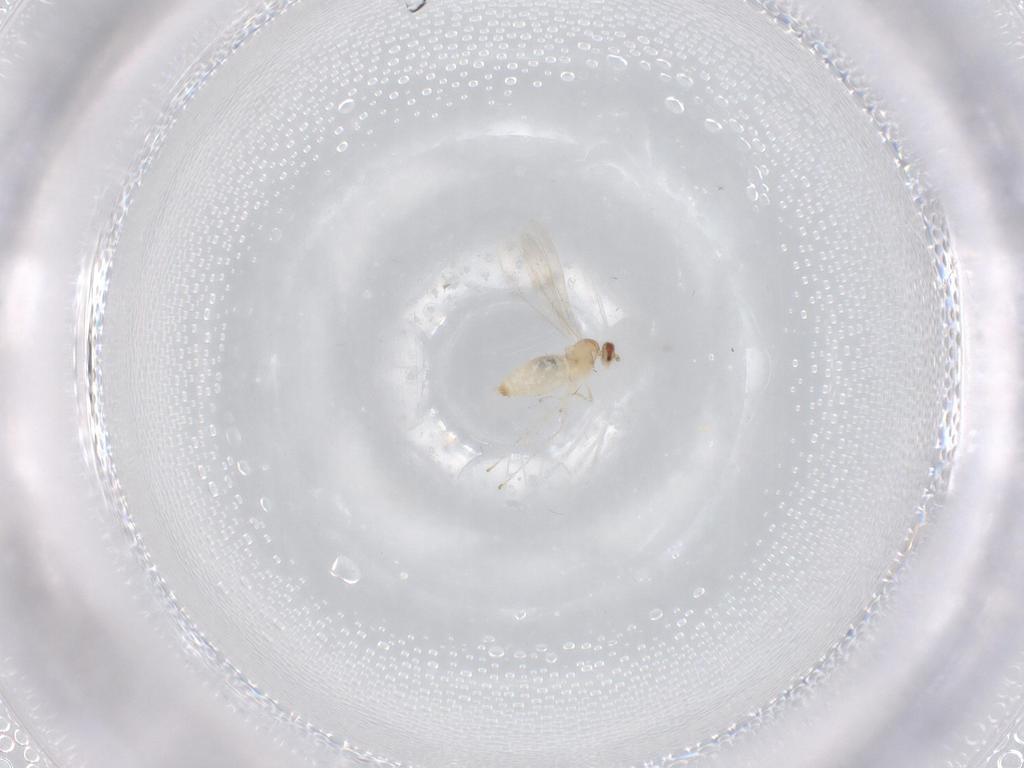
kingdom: Animalia
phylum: Arthropoda
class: Insecta
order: Diptera
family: Cecidomyiidae
